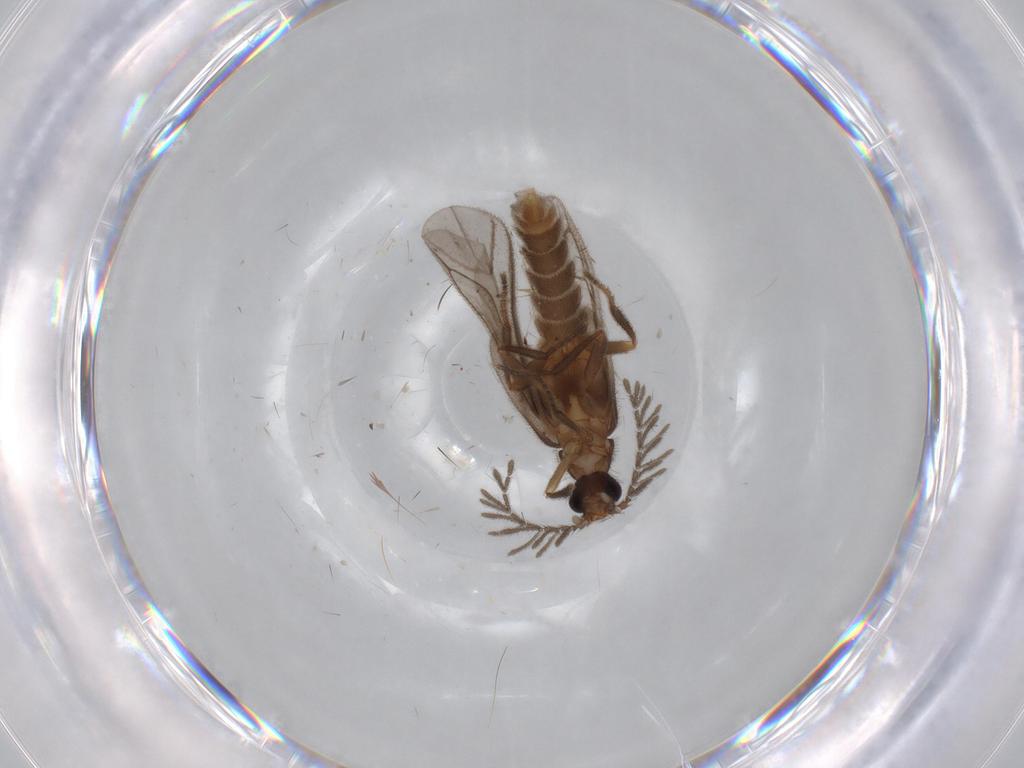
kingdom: Animalia
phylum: Arthropoda
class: Insecta
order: Coleoptera
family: Chrysomelidae
